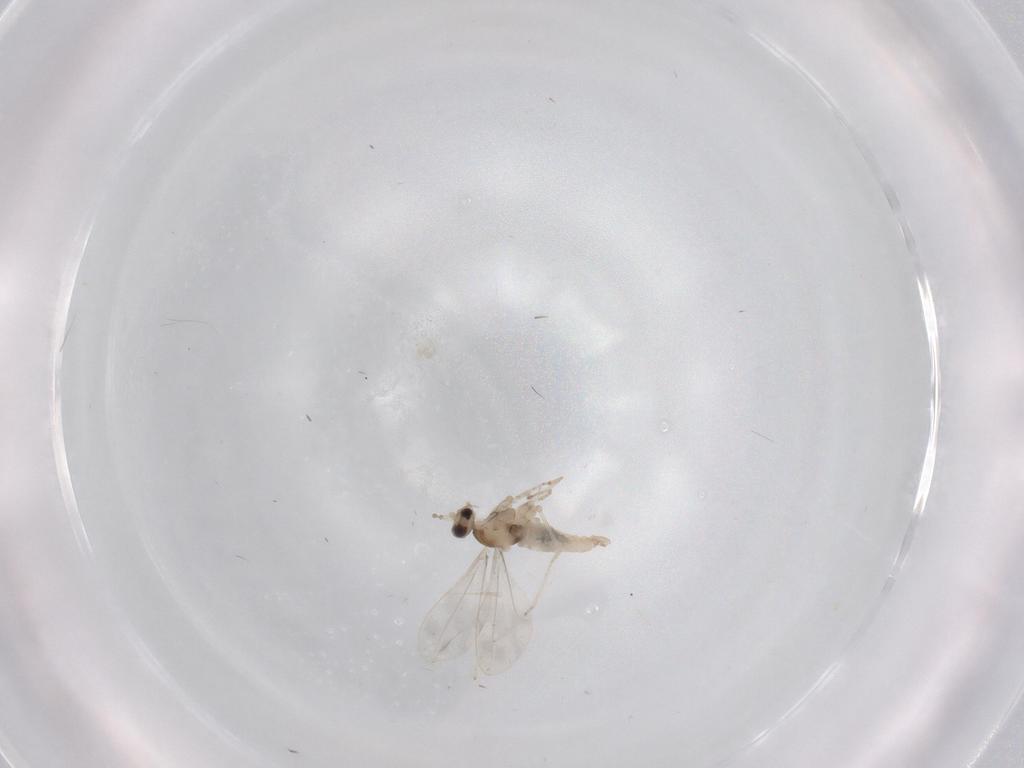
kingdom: Animalia
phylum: Arthropoda
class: Insecta
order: Diptera
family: Cecidomyiidae
